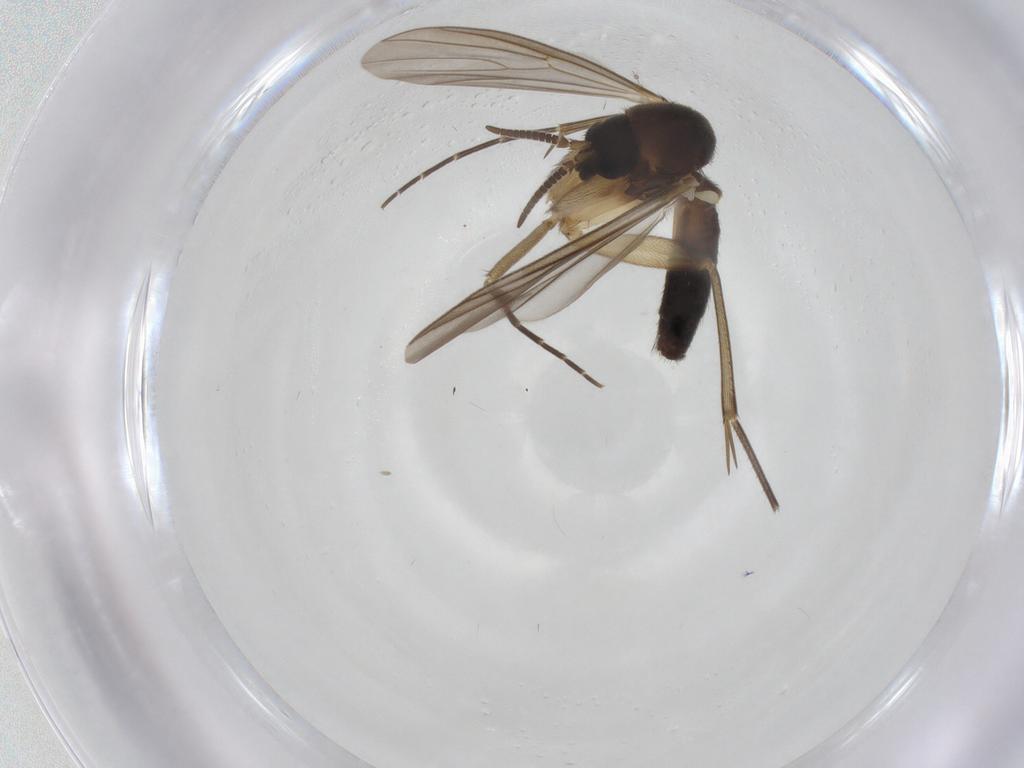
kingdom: Animalia
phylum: Arthropoda
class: Insecta
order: Diptera
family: Mycetophilidae
